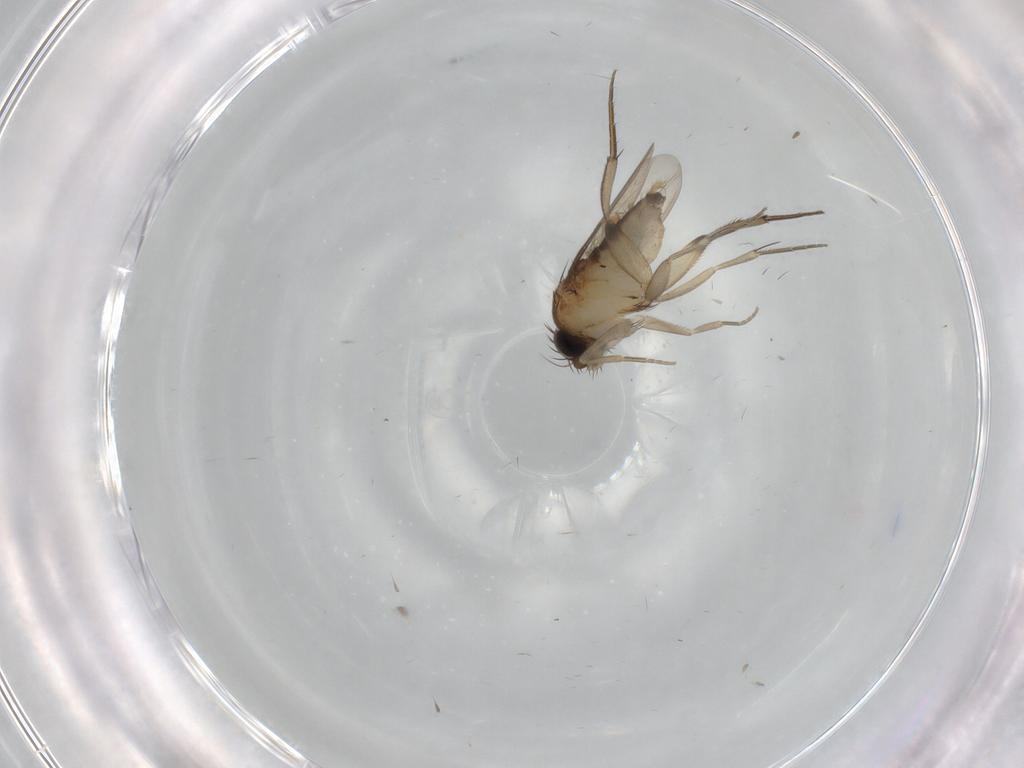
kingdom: Animalia
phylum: Arthropoda
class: Insecta
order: Diptera
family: Phoridae
